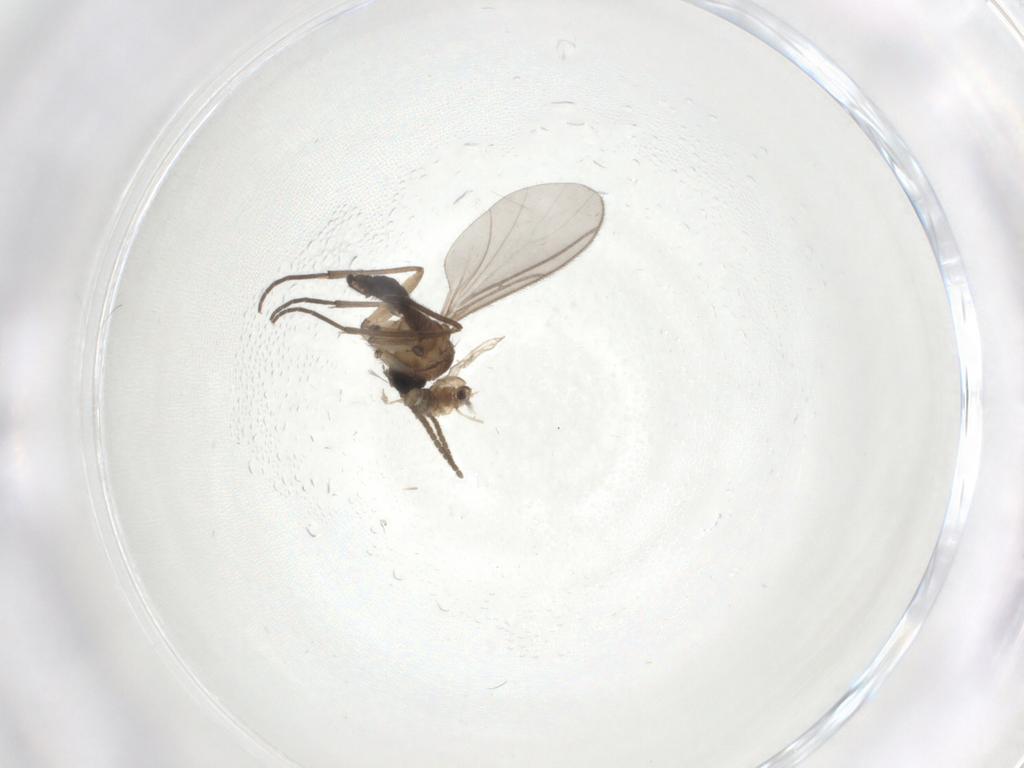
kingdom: Animalia
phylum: Arthropoda
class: Insecta
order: Diptera
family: Chironomidae
